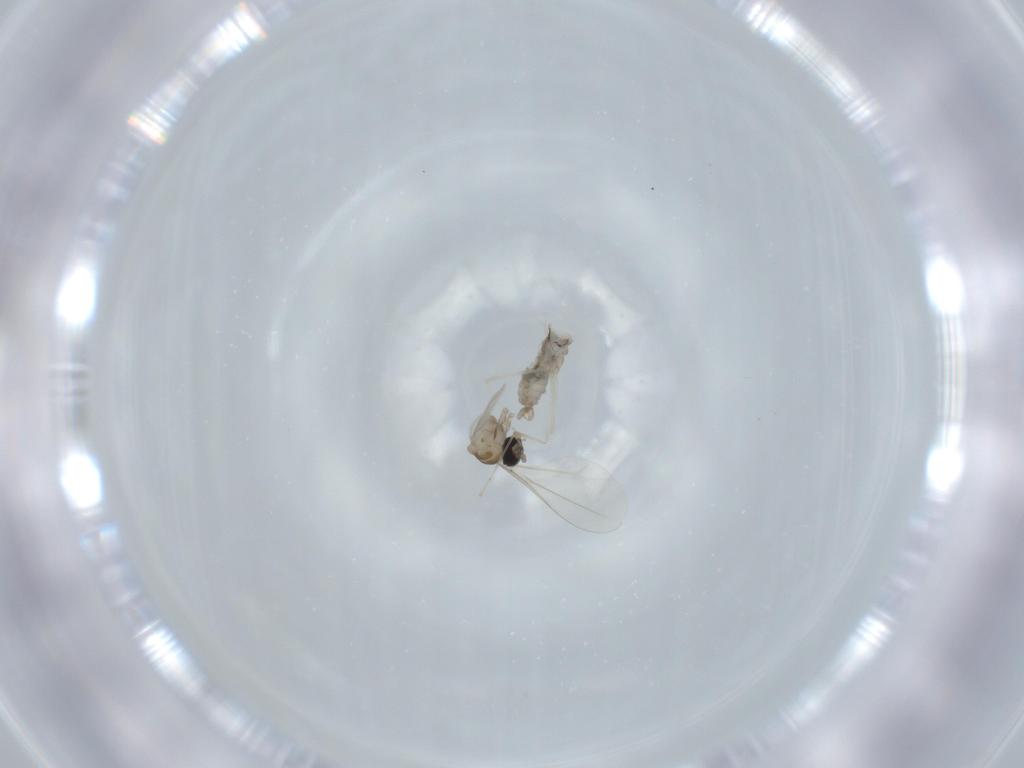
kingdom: Animalia
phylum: Arthropoda
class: Insecta
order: Diptera
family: Cecidomyiidae
